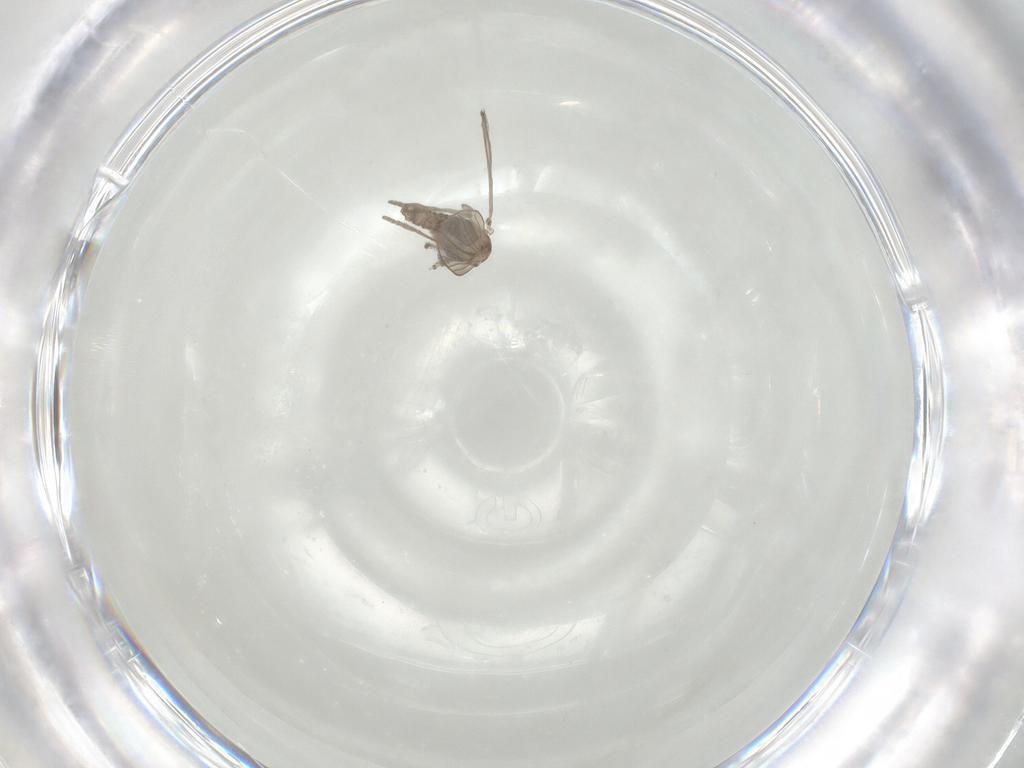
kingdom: Animalia
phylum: Arthropoda
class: Insecta
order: Diptera
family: Psychodidae
